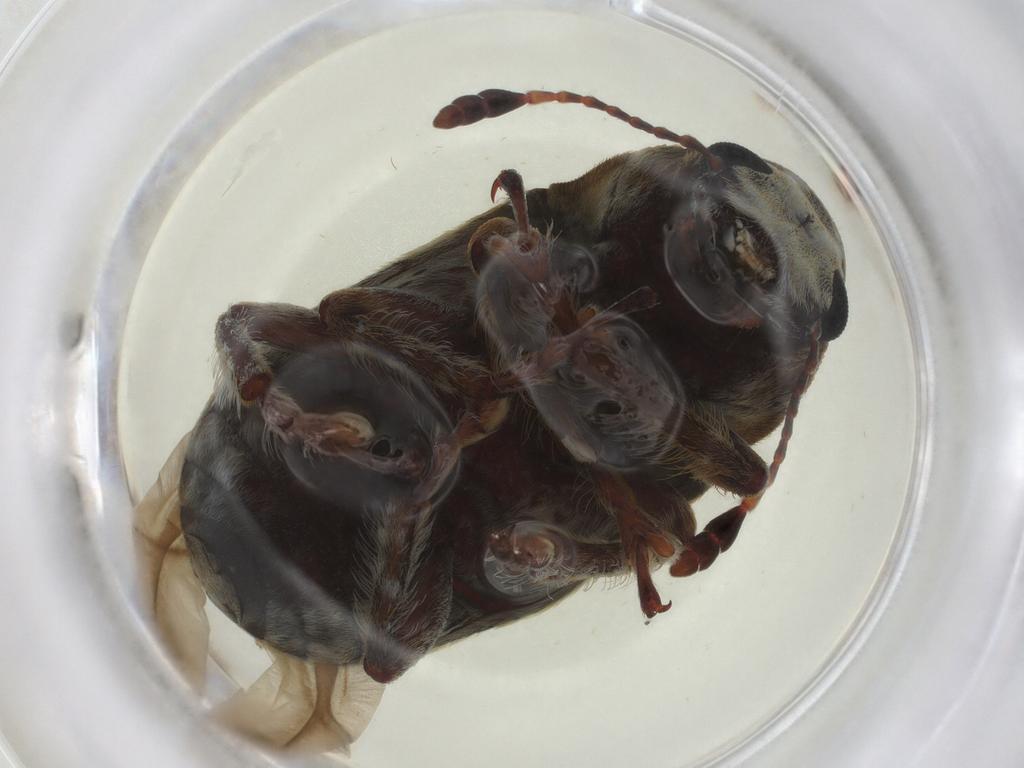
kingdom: Animalia
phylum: Arthropoda
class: Insecta
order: Coleoptera
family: Anthribidae
